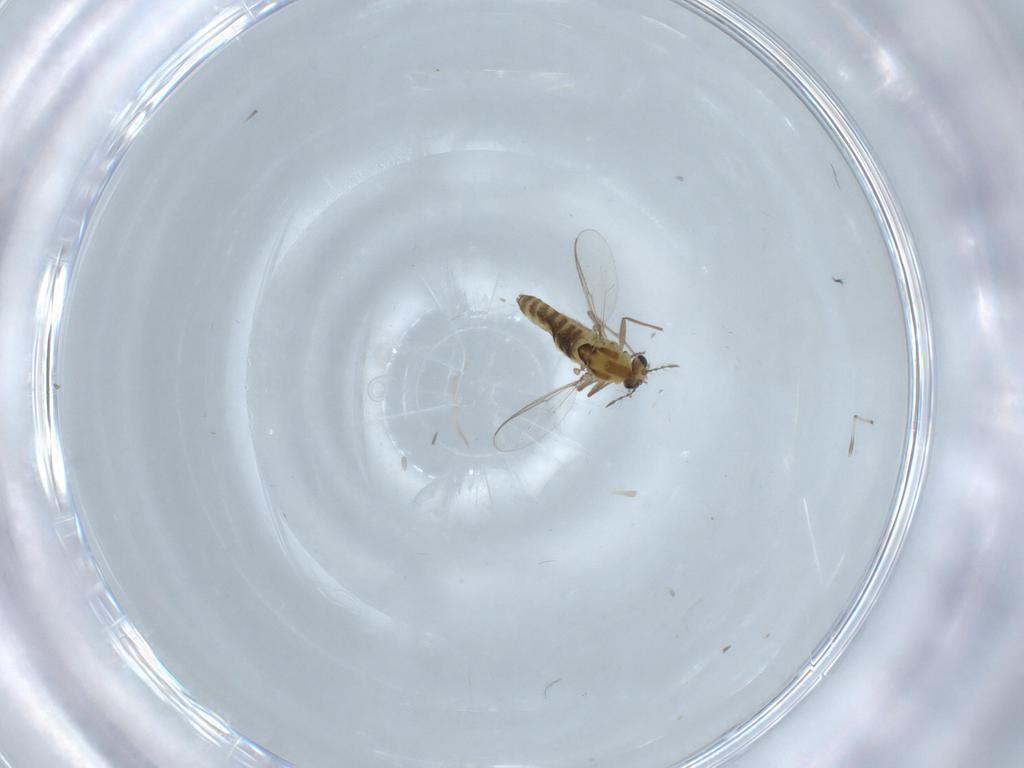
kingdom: Animalia
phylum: Arthropoda
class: Insecta
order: Diptera
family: Chironomidae
